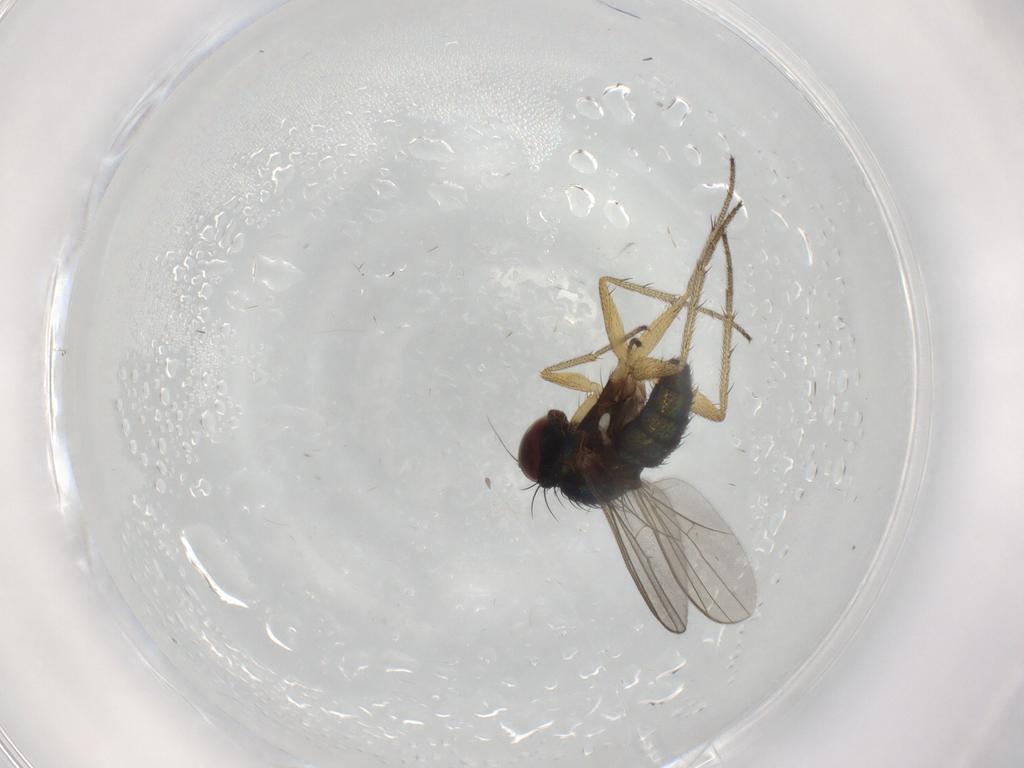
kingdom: Animalia
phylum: Arthropoda
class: Insecta
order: Diptera
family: Dolichopodidae
